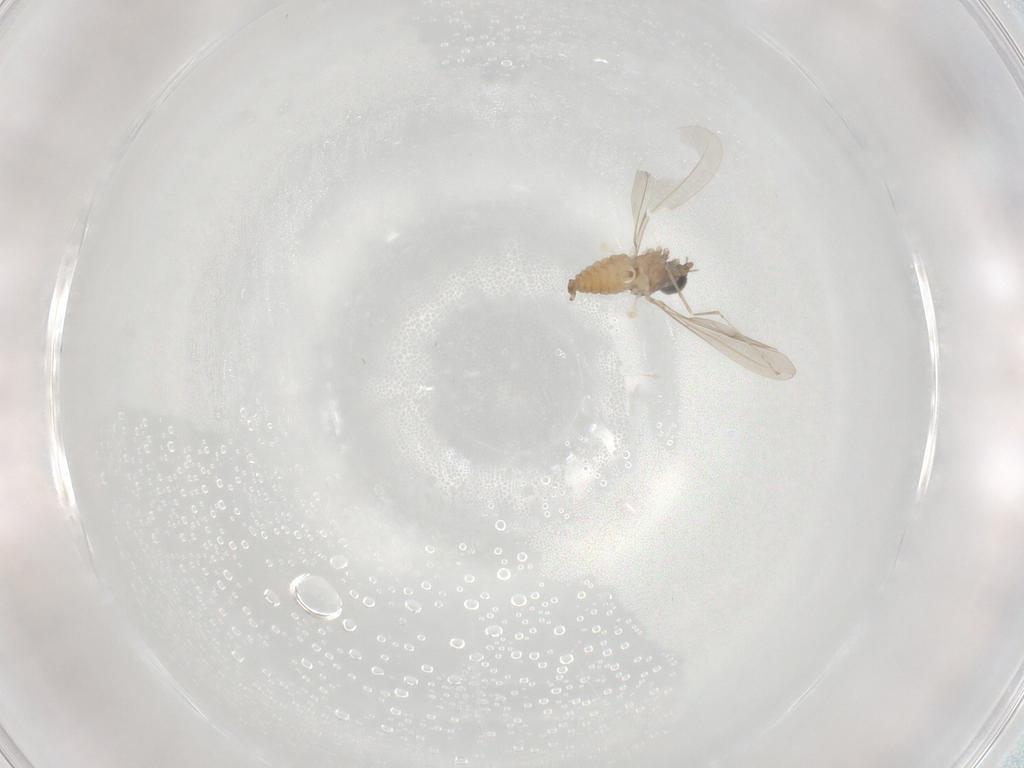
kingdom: Animalia
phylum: Arthropoda
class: Insecta
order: Diptera
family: Cecidomyiidae
